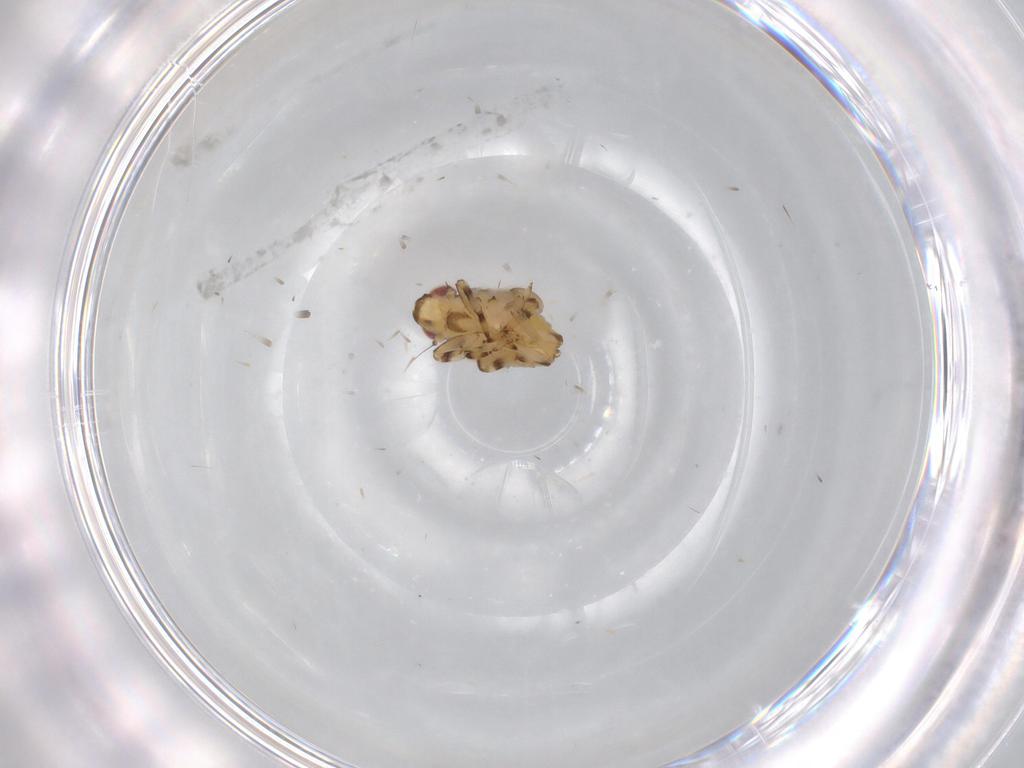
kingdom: Animalia
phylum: Arthropoda
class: Insecta
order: Hemiptera
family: Issidae
